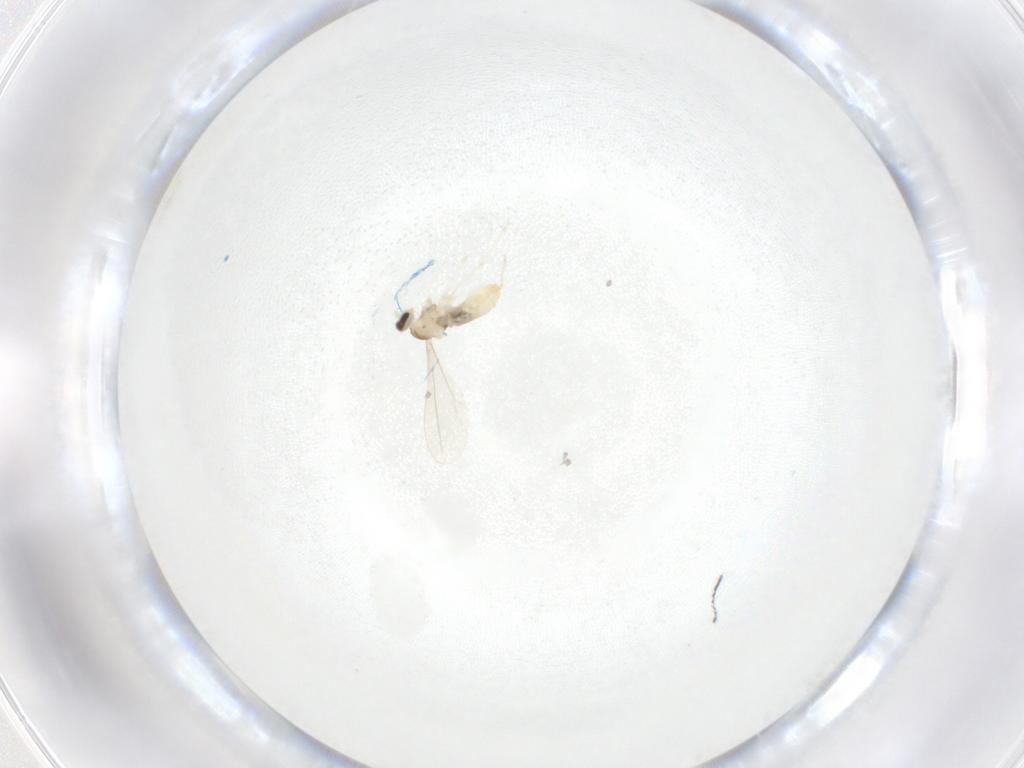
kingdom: Animalia
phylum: Arthropoda
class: Insecta
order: Diptera
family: Cecidomyiidae
